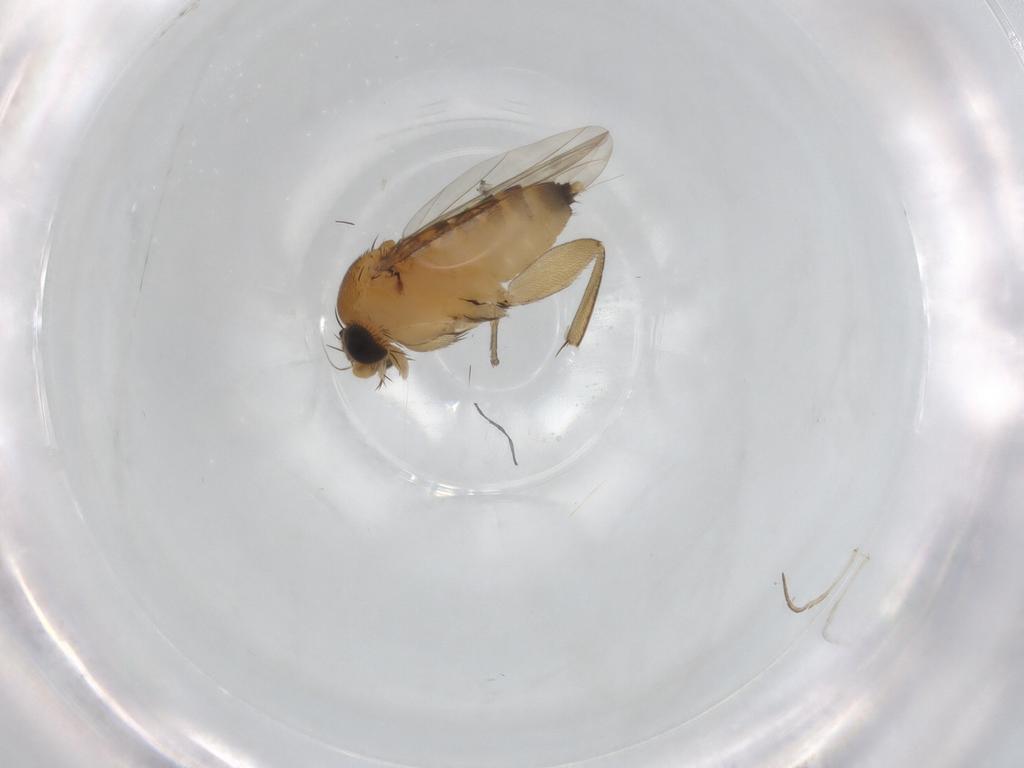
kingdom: Animalia
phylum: Arthropoda
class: Insecta
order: Diptera
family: Phoridae
